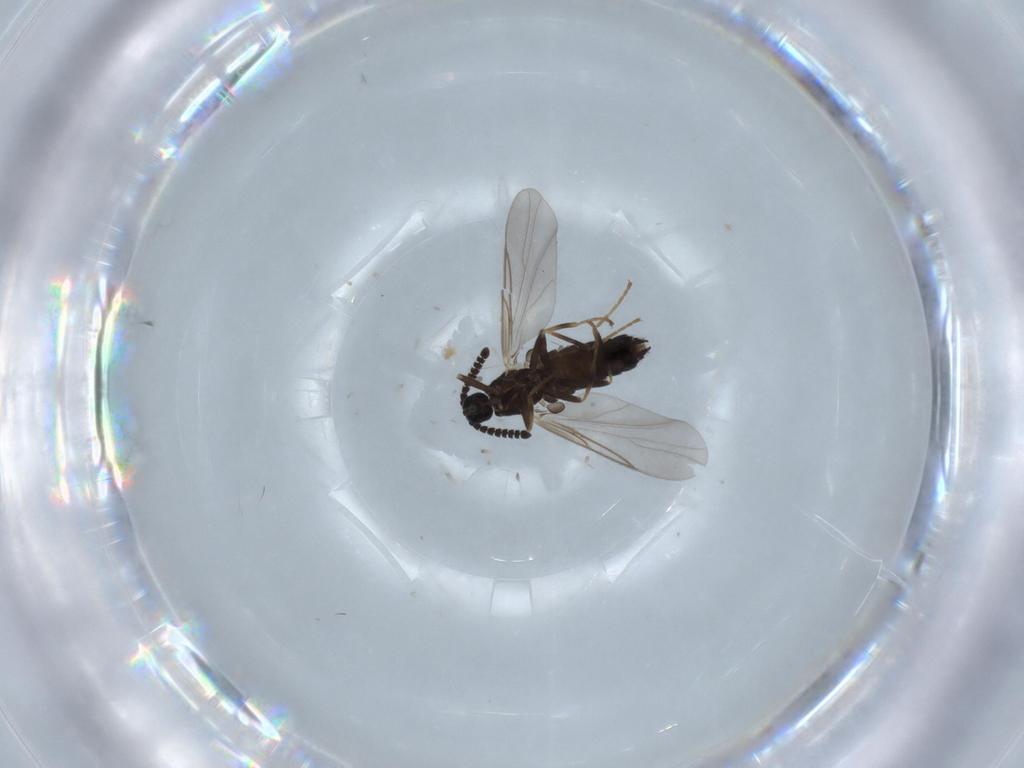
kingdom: Animalia
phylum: Arthropoda
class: Insecta
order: Diptera
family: Scatopsidae
